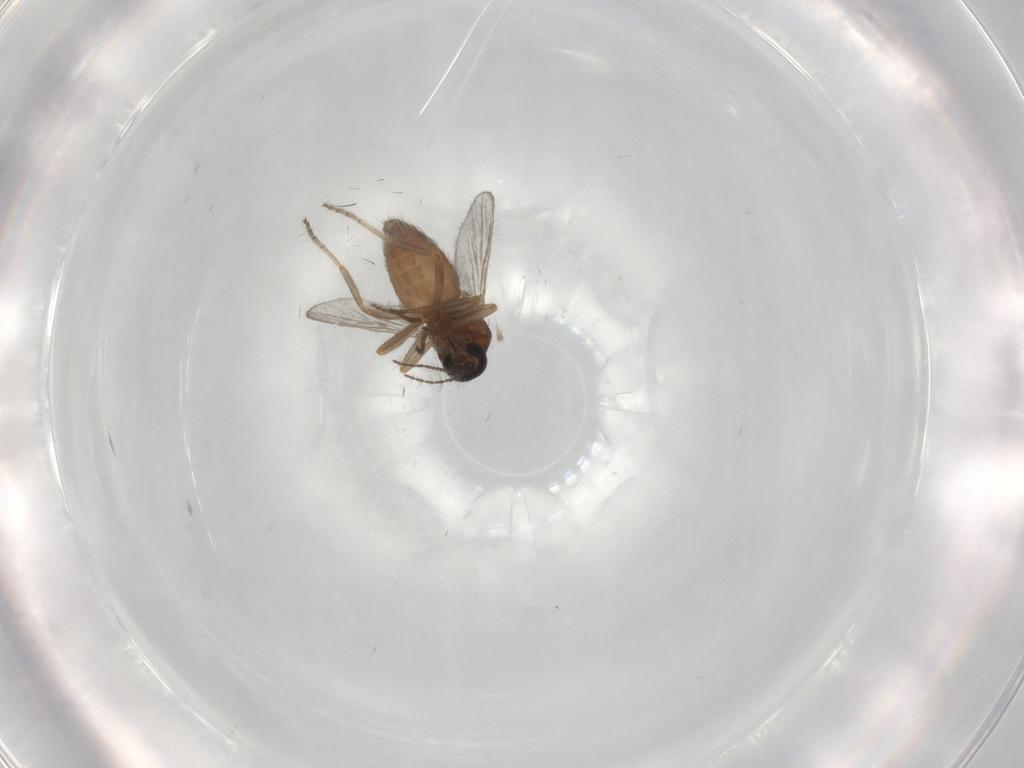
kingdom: Animalia
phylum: Arthropoda
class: Insecta
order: Diptera
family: Ceratopogonidae
